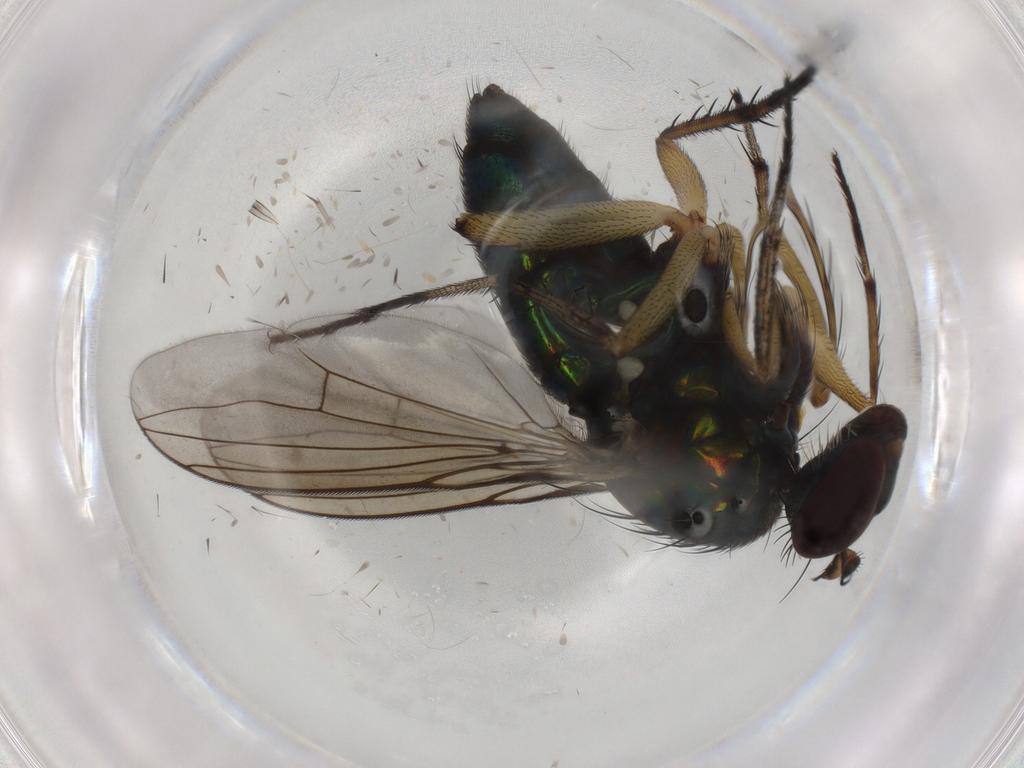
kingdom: Animalia
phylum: Arthropoda
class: Insecta
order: Diptera
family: Dolichopodidae
